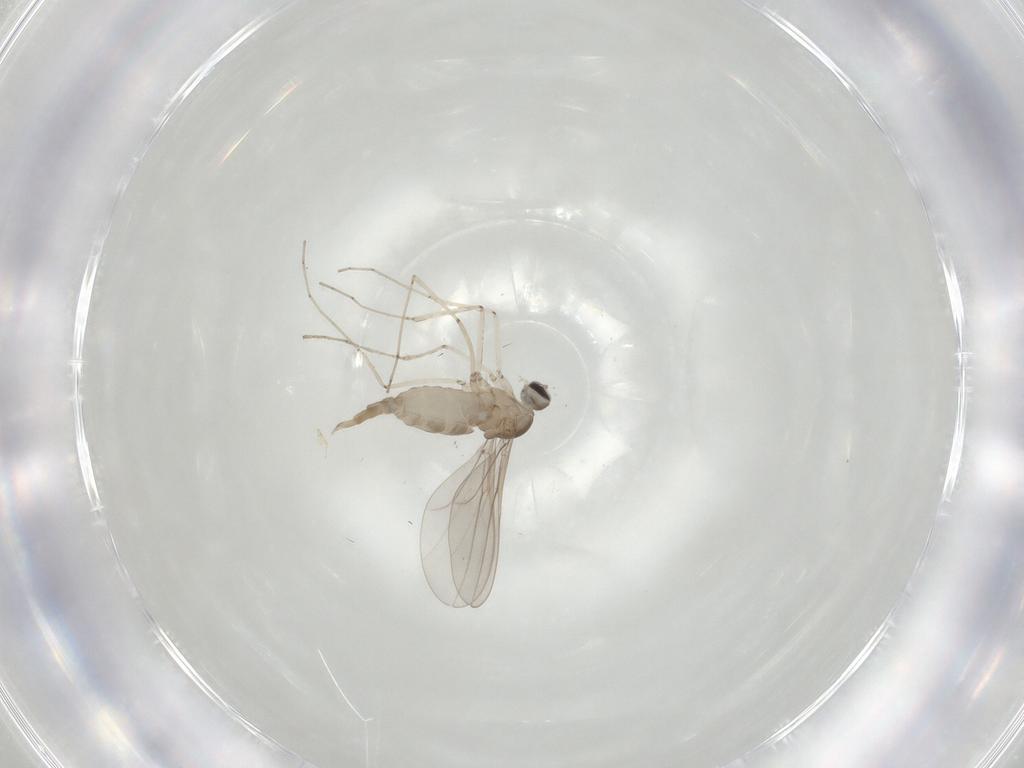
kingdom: Animalia
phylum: Arthropoda
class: Insecta
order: Diptera
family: Cecidomyiidae
